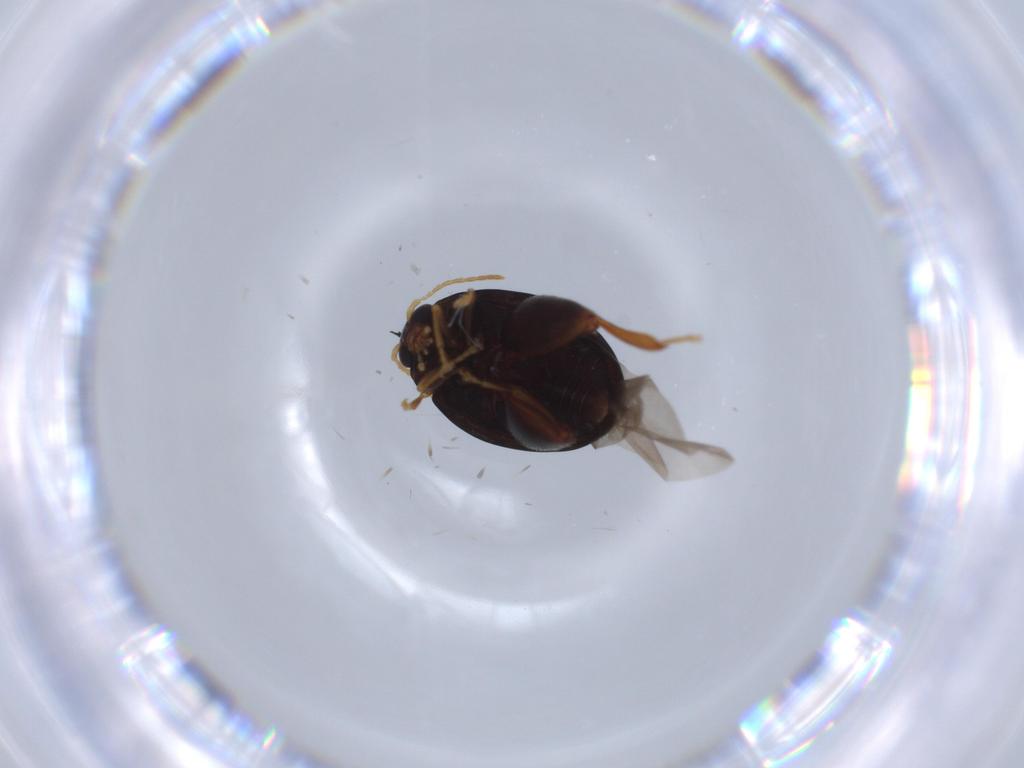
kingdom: Animalia
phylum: Arthropoda
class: Insecta
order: Coleoptera
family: Chrysomelidae
